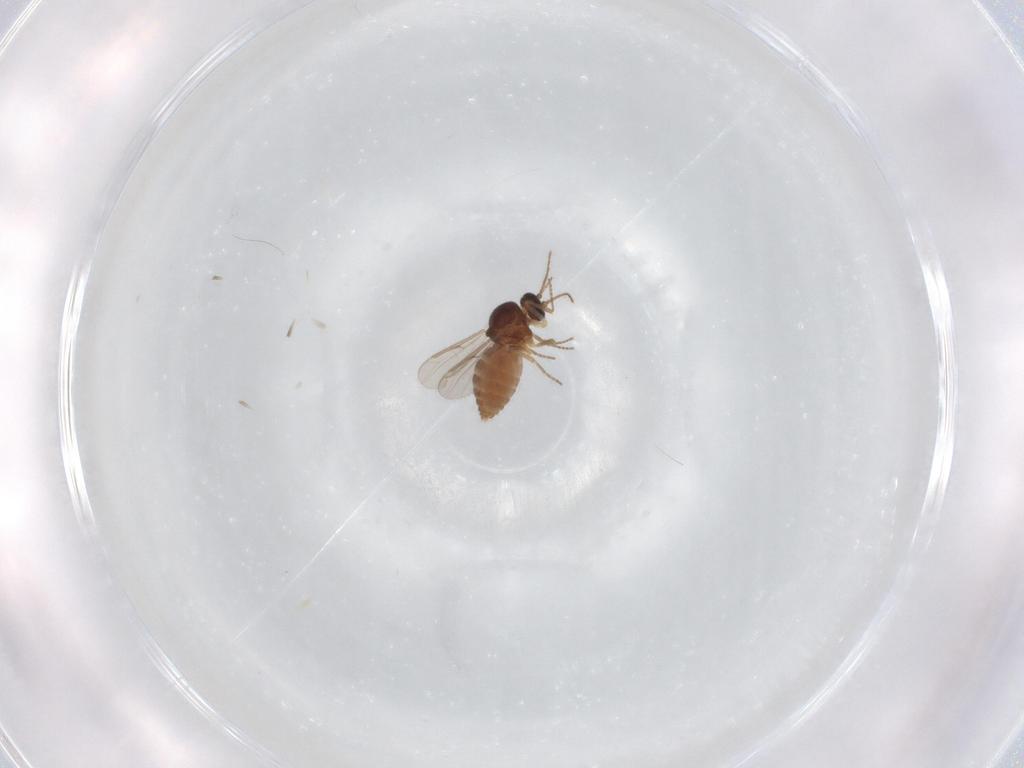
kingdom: Animalia
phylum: Arthropoda
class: Insecta
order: Diptera
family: Ceratopogonidae
